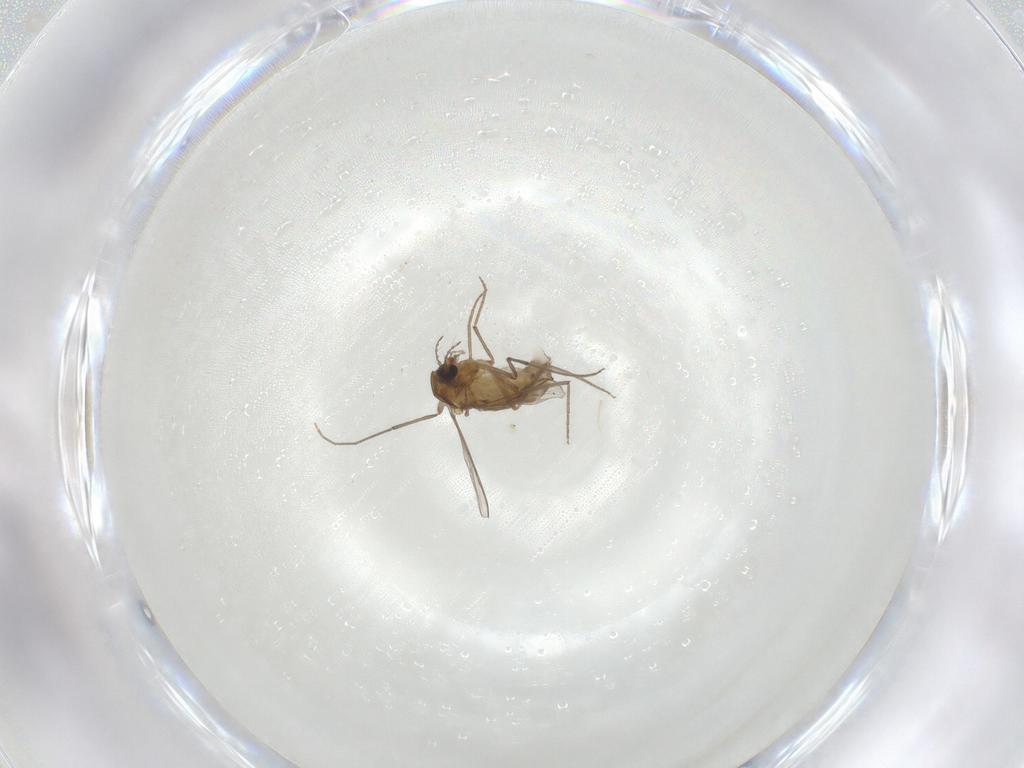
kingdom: Animalia
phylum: Arthropoda
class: Insecta
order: Diptera
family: Chironomidae
